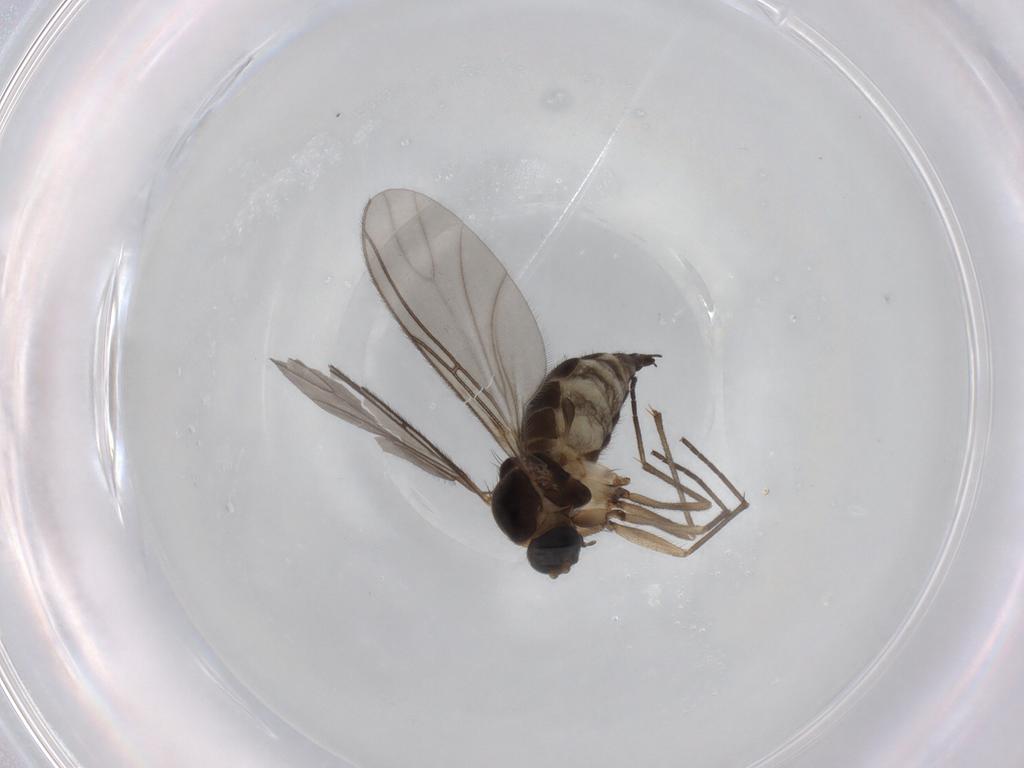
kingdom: Animalia
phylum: Arthropoda
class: Insecta
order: Diptera
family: Sciaridae
